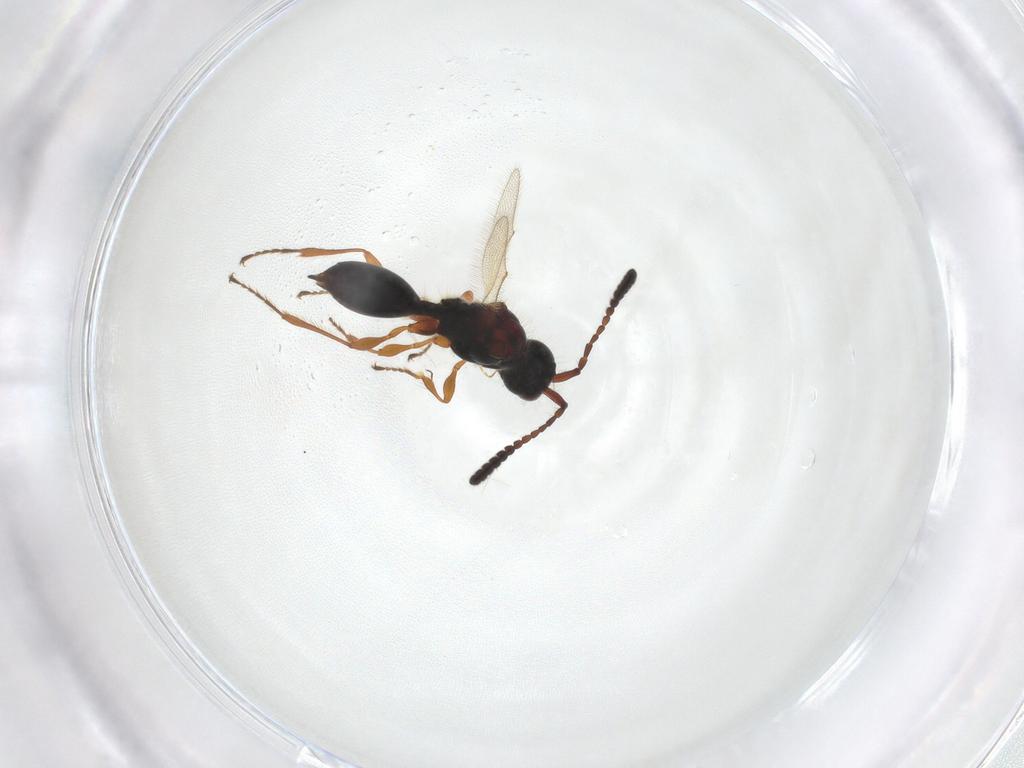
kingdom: Animalia
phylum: Arthropoda
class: Insecta
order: Hymenoptera
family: Diapriidae
